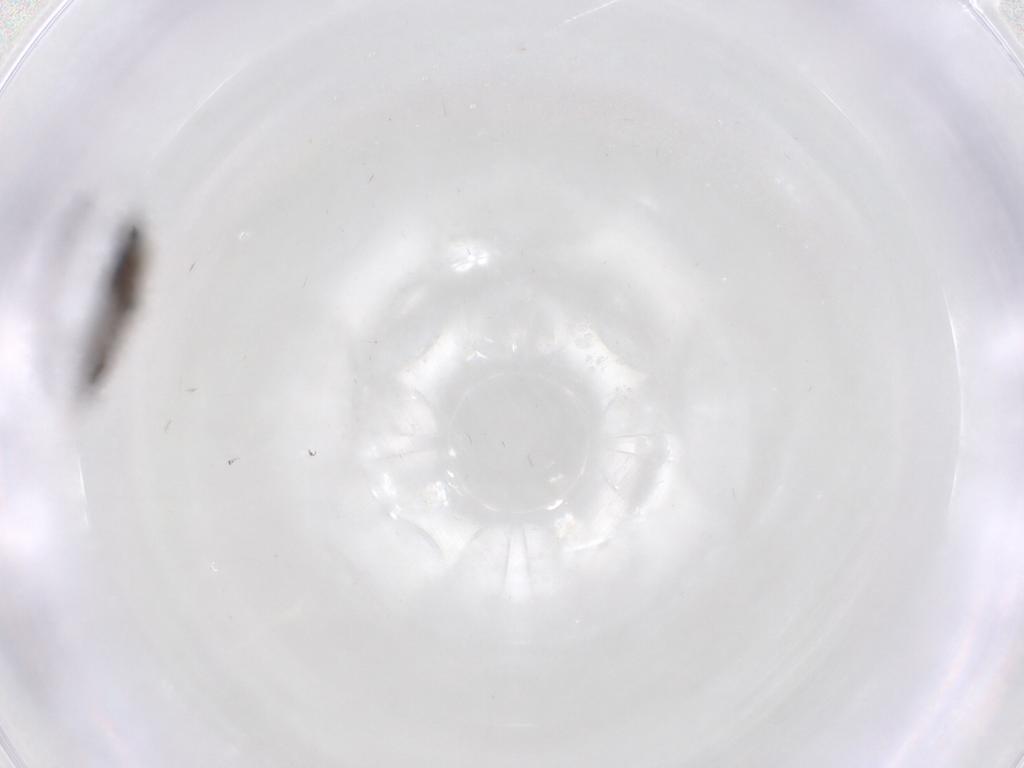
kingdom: Animalia
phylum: Arthropoda
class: Insecta
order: Diptera
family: Sciaridae
